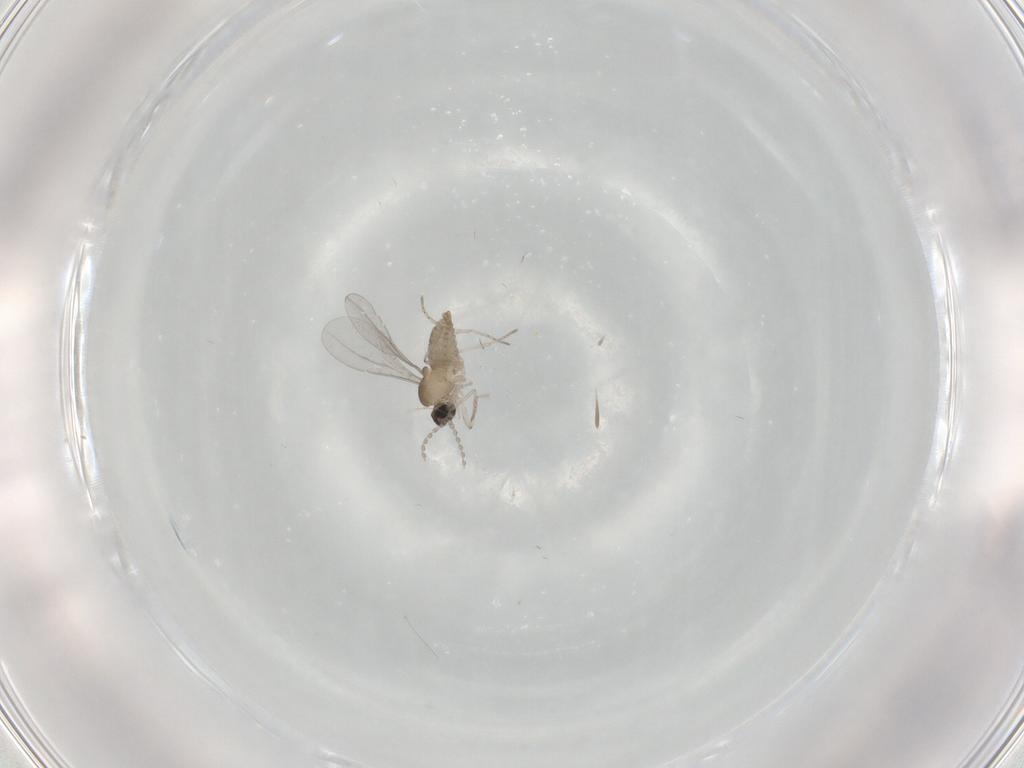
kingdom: Animalia
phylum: Arthropoda
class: Insecta
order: Diptera
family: Cecidomyiidae
